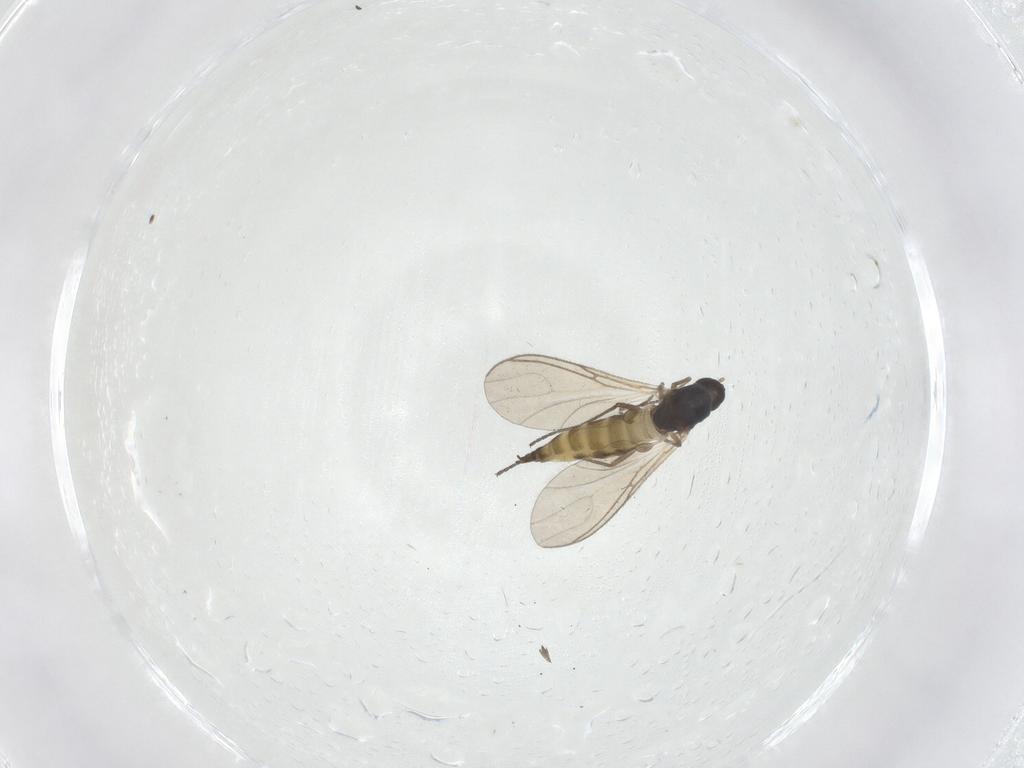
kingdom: Animalia
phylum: Arthropoda
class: Insecta
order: Diptera
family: Sciaridae
